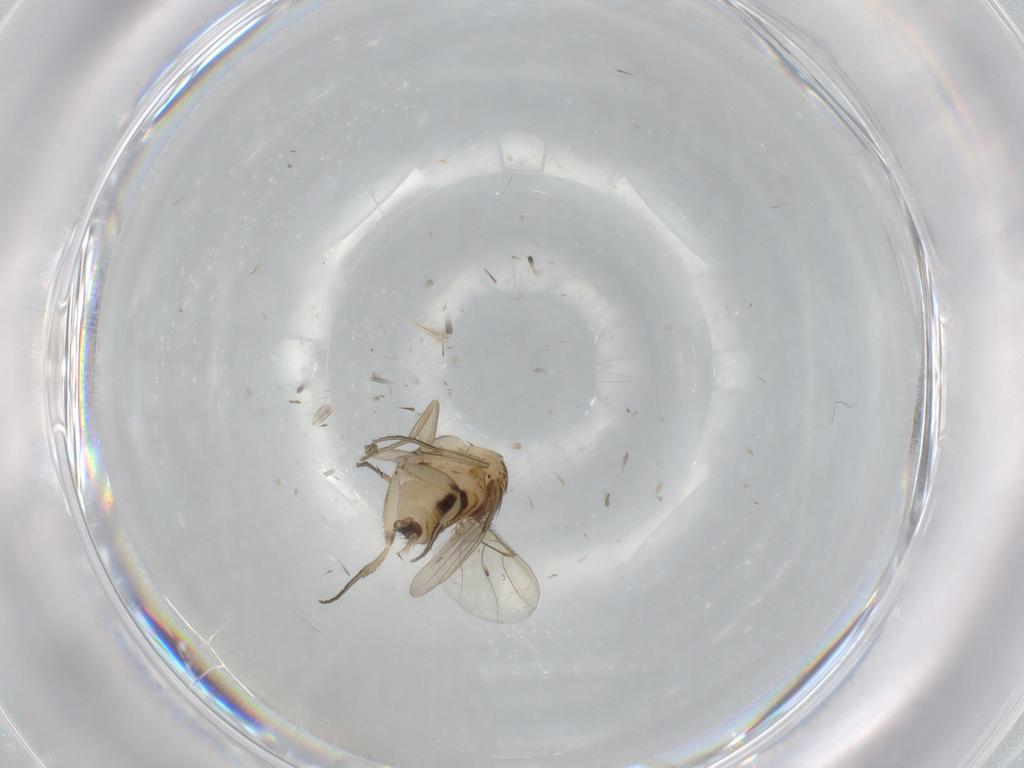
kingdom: Animalia
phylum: Arthropoda
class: Insecta
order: Diptera
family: Phoridae
